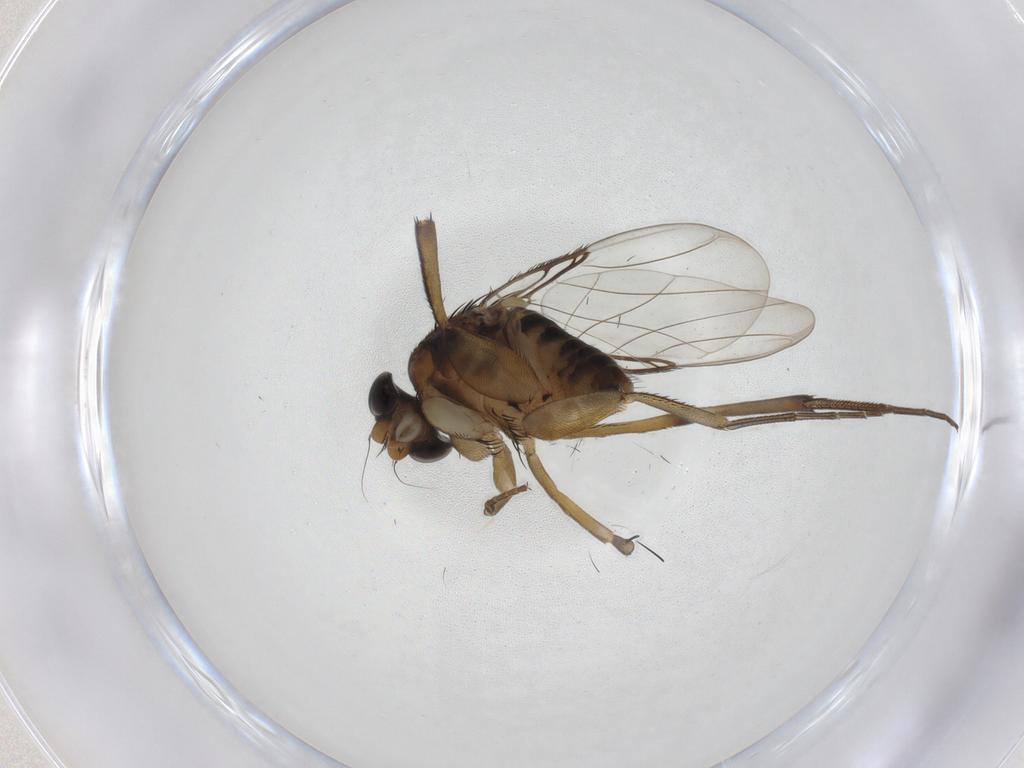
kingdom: Animalia
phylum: Arthropoda
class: Insecta
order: Diptera
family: Phoridae
